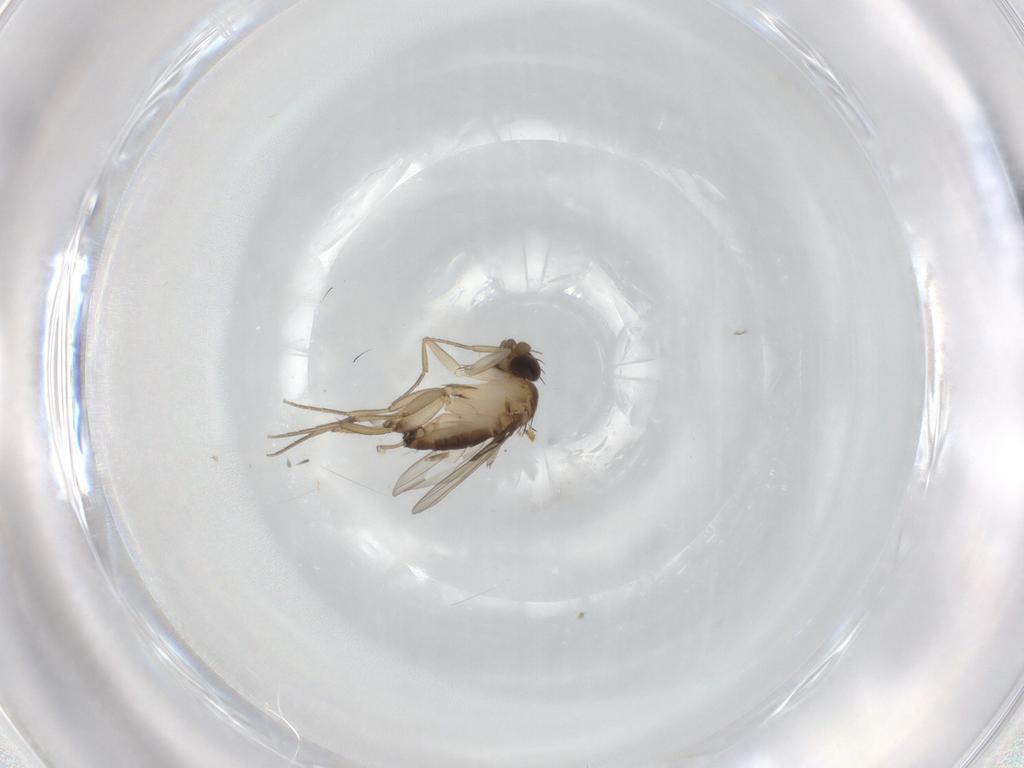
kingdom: Animalia
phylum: Arthropoda
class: Insecta
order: Diptera
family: Phoridae
